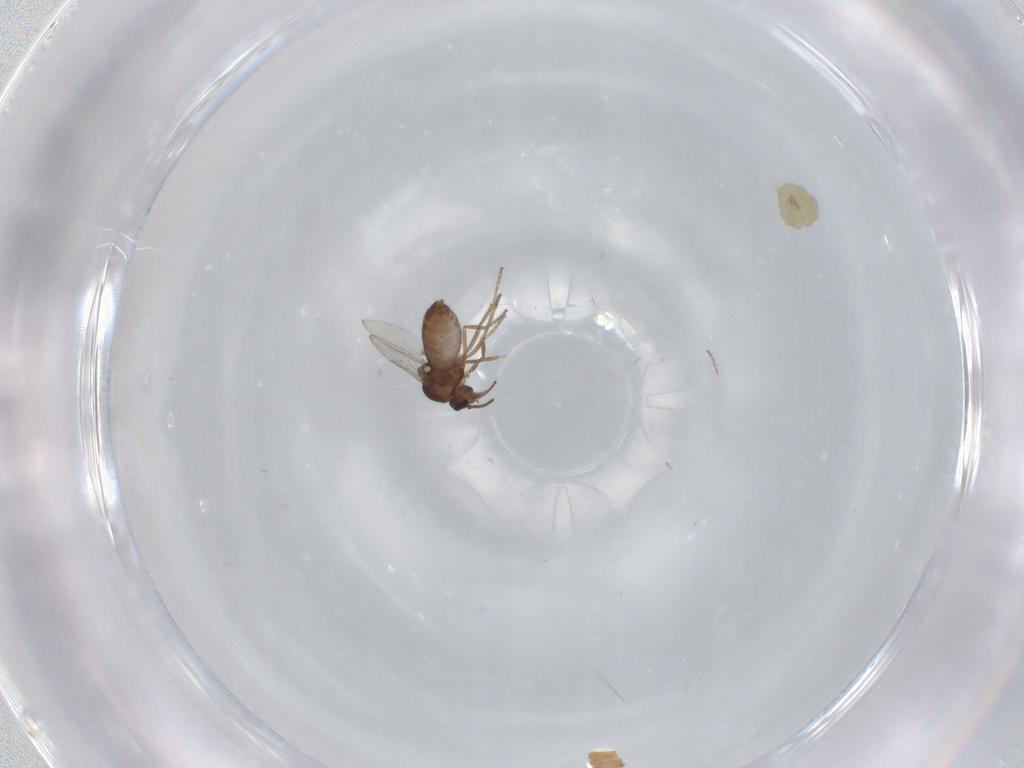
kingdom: Animalia
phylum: Arthropoda
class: Insecta
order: Diptera
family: Ceratopogonidae
